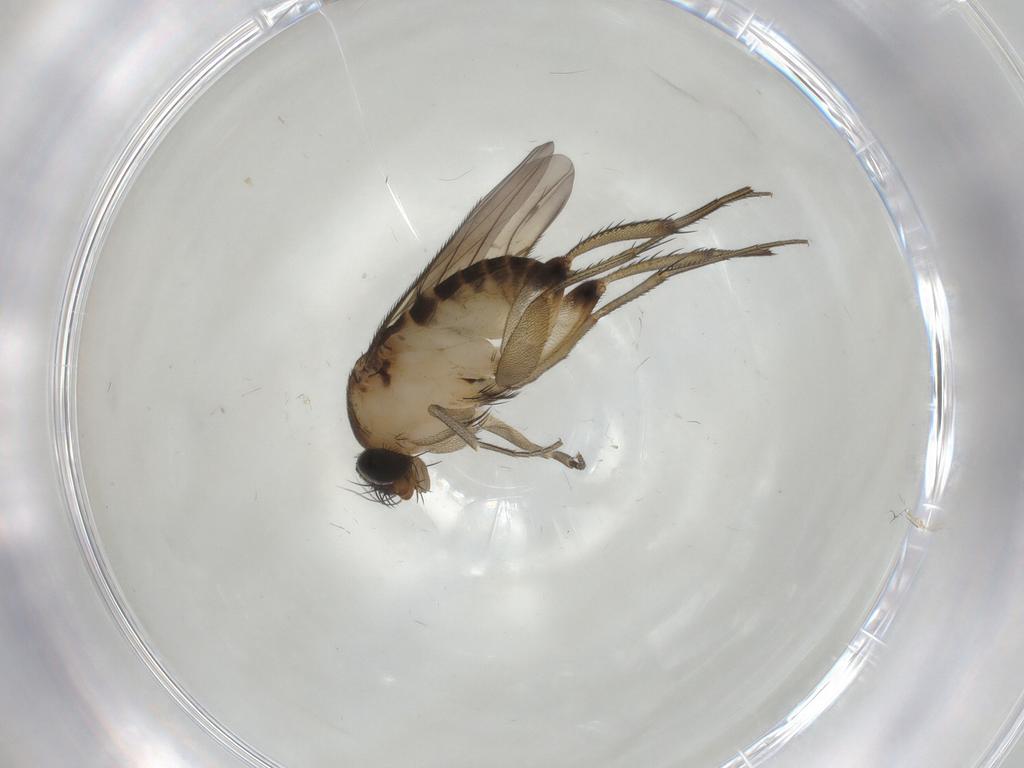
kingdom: Animalia
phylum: Arthropoda
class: Insecta
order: Diptera
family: Phoridae
